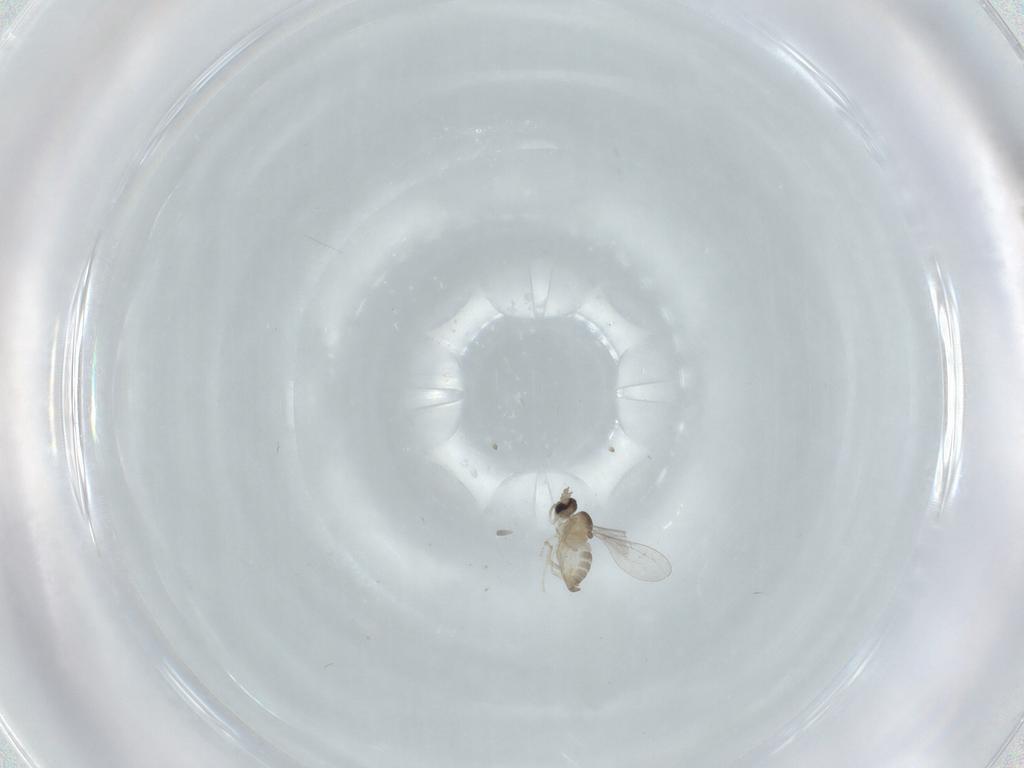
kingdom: Animalia
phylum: Arthropoda
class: Insecta
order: Diptera
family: Cecidomyiidae
